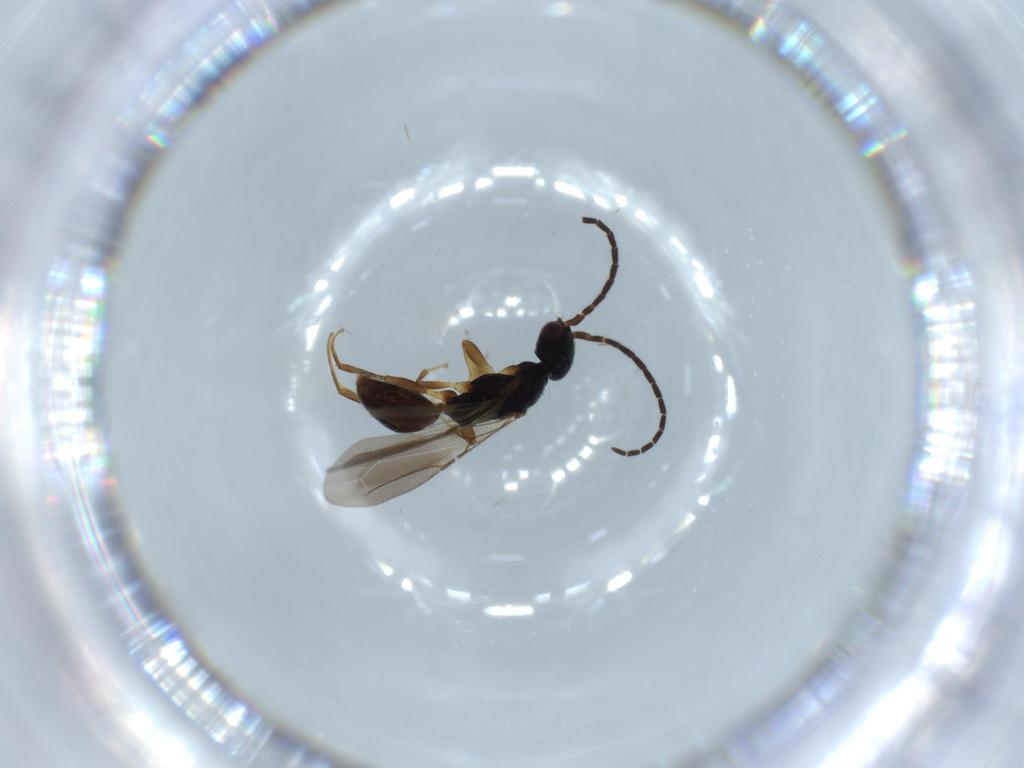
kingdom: Animalia
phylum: Arthropoda
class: Insecta
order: Hymenoptera
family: Bethylidae
